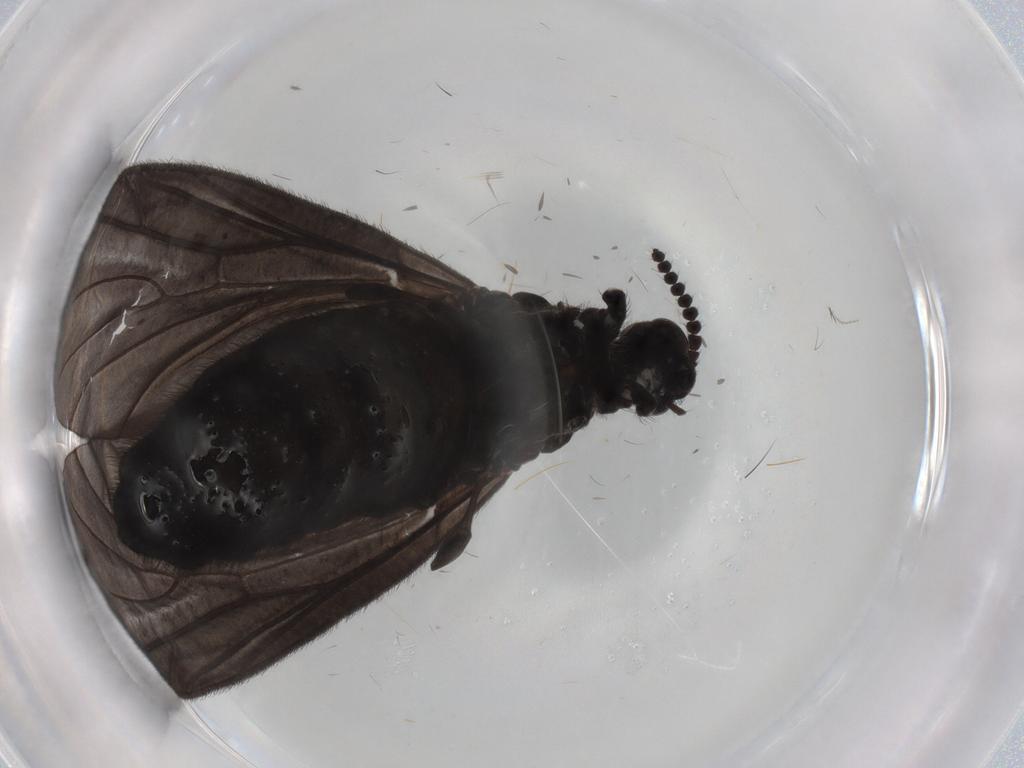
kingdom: Animalia
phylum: Arthropoda
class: Insecta
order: Diptera
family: Bibionidae
